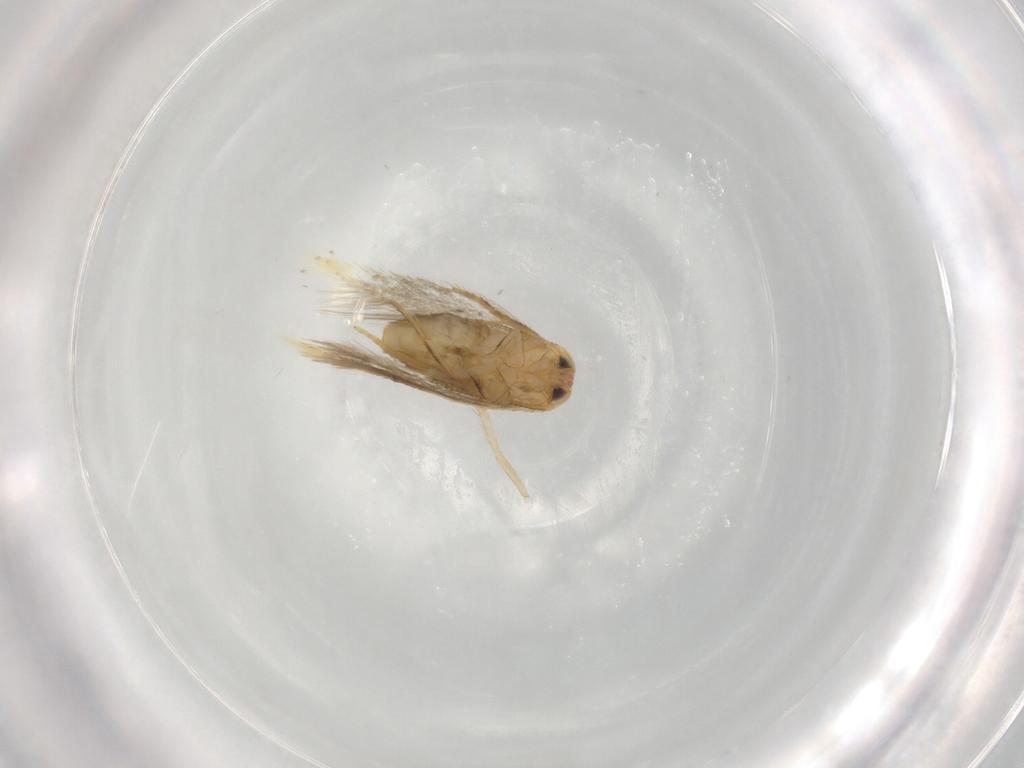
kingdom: Animalia
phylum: Arthropoda
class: Insecta
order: Lepidoptera
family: Nepticulidae
